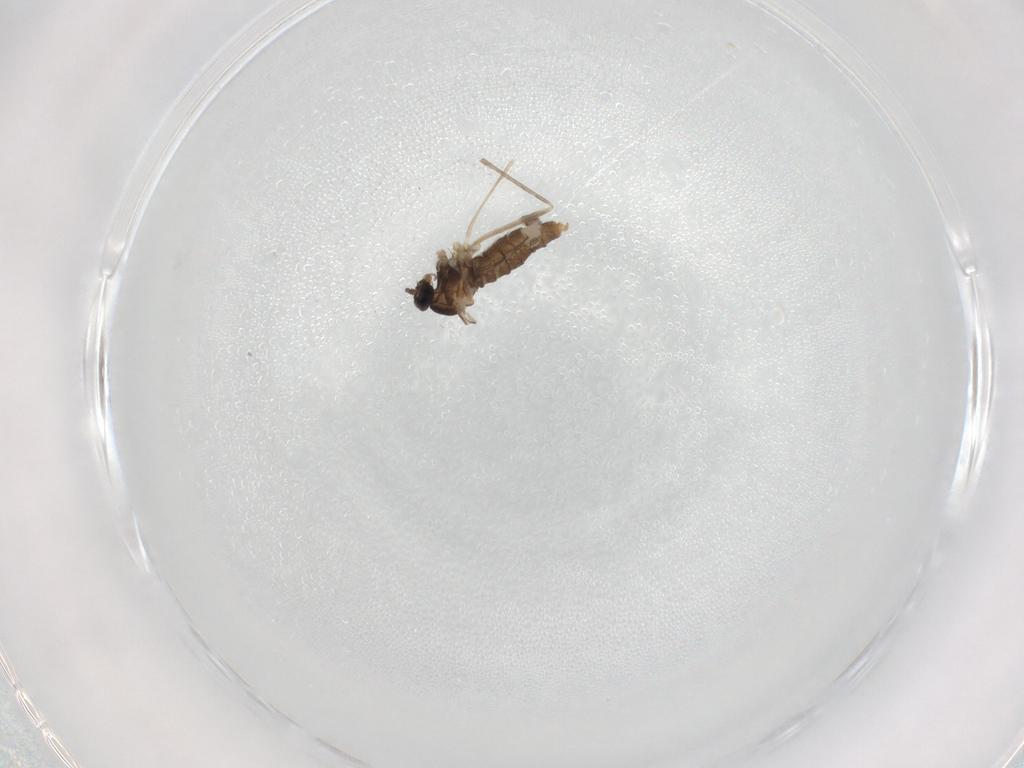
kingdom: Animalia
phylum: Arthropoda
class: Insecta
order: Diptera
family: Cecidomyiidae
